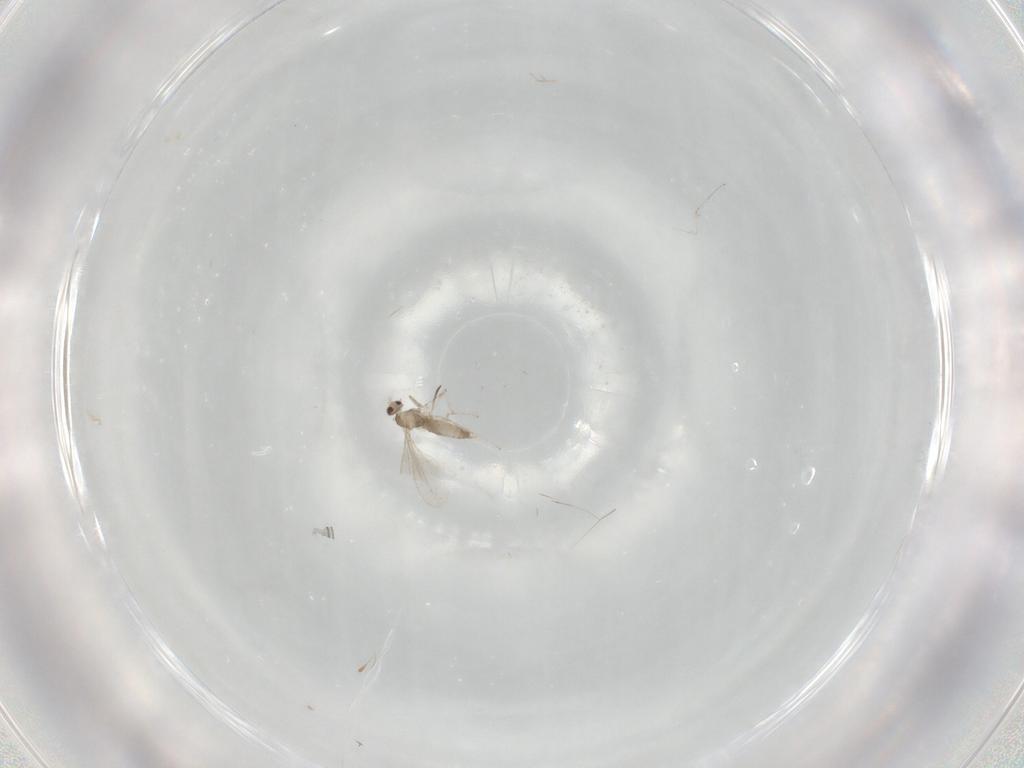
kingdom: Animalia
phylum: Arthropoda
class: Insecta
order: Diptera
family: Cecidomyiidae
